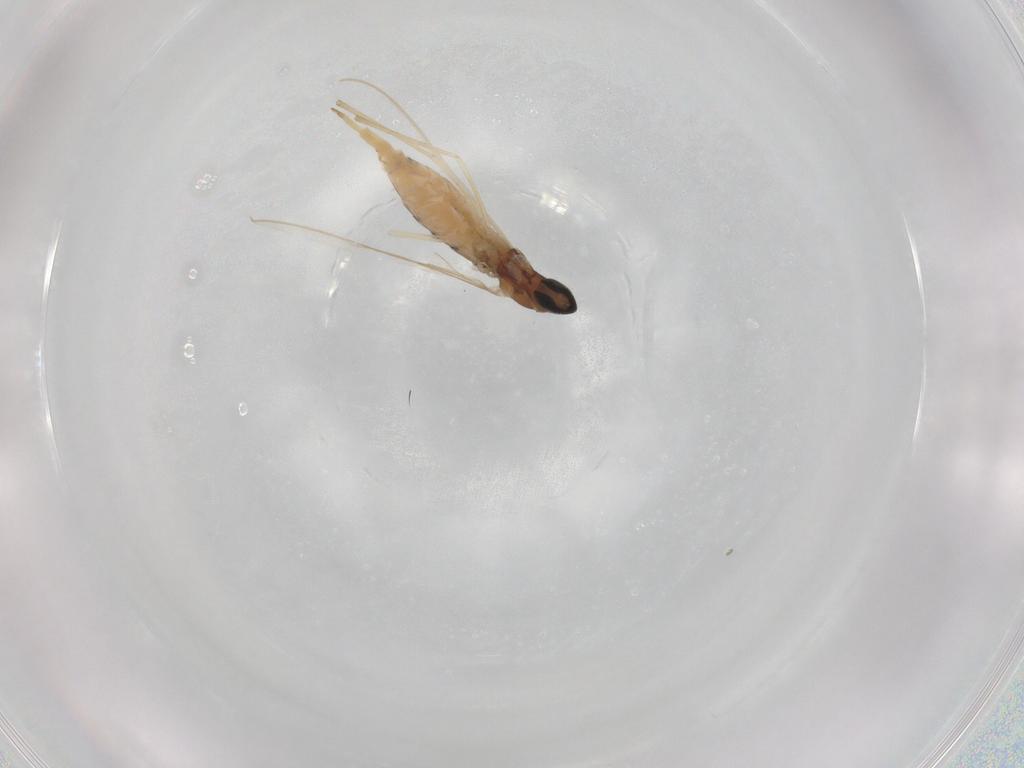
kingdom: Animalia
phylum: Arthropoda
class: Insecta
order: Diptera
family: Cecidomyiidae
